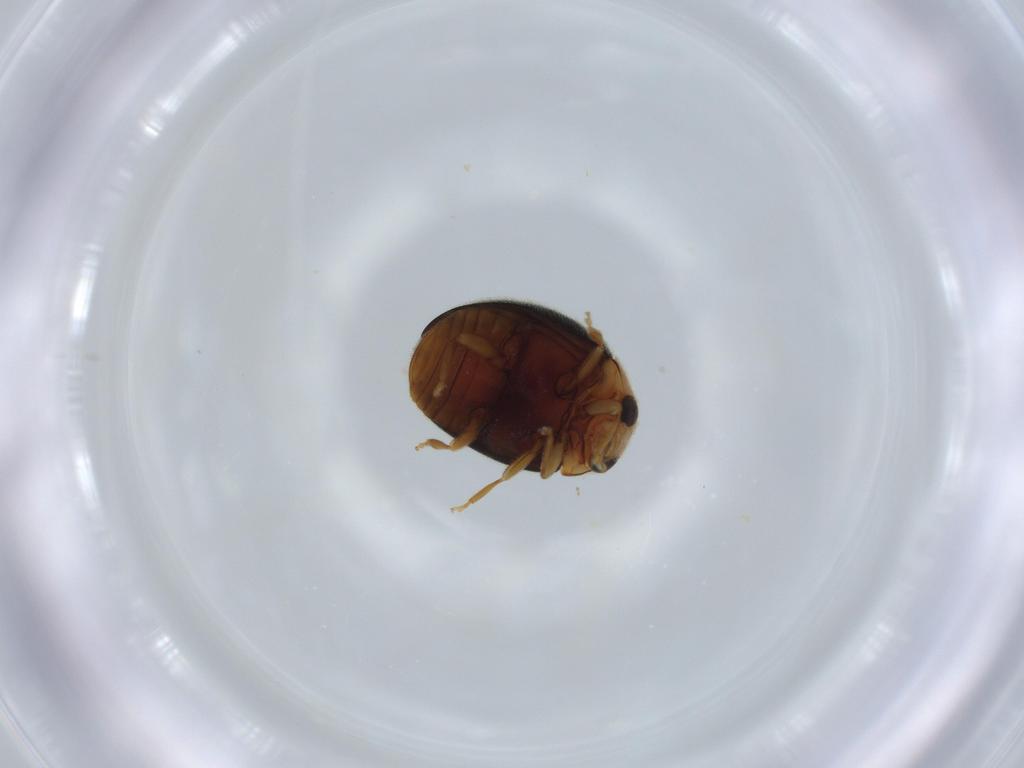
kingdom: Animalia
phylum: Arthropoda
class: Insecta
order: Coleoptera
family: Coccinellidae
